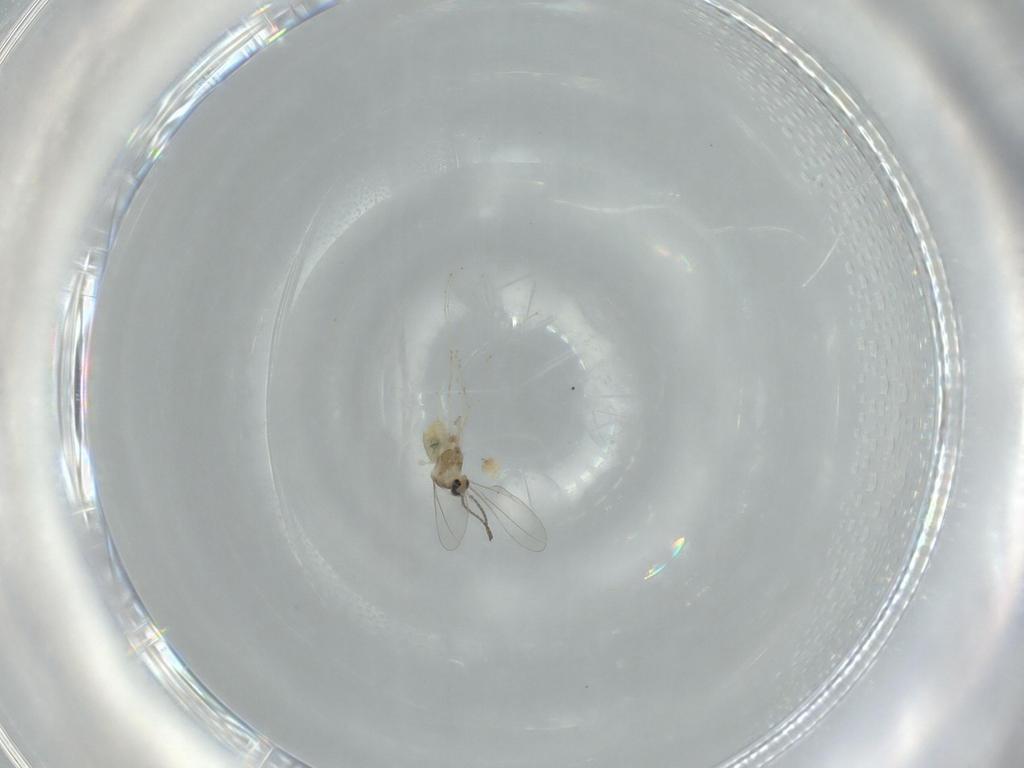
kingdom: Animalia
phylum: Arthropoda
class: Insecta
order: Diptera
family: Cecidomyiidae
